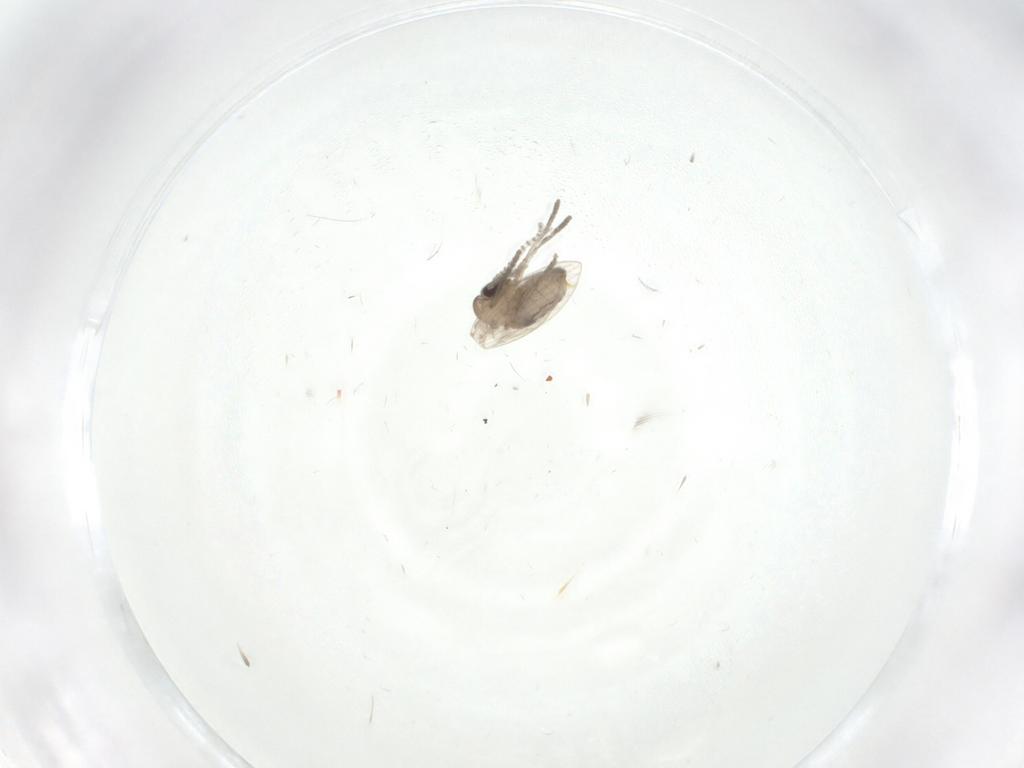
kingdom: Animalia
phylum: Arthropoda
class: Insecta
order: Diptera
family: Psychodidae
